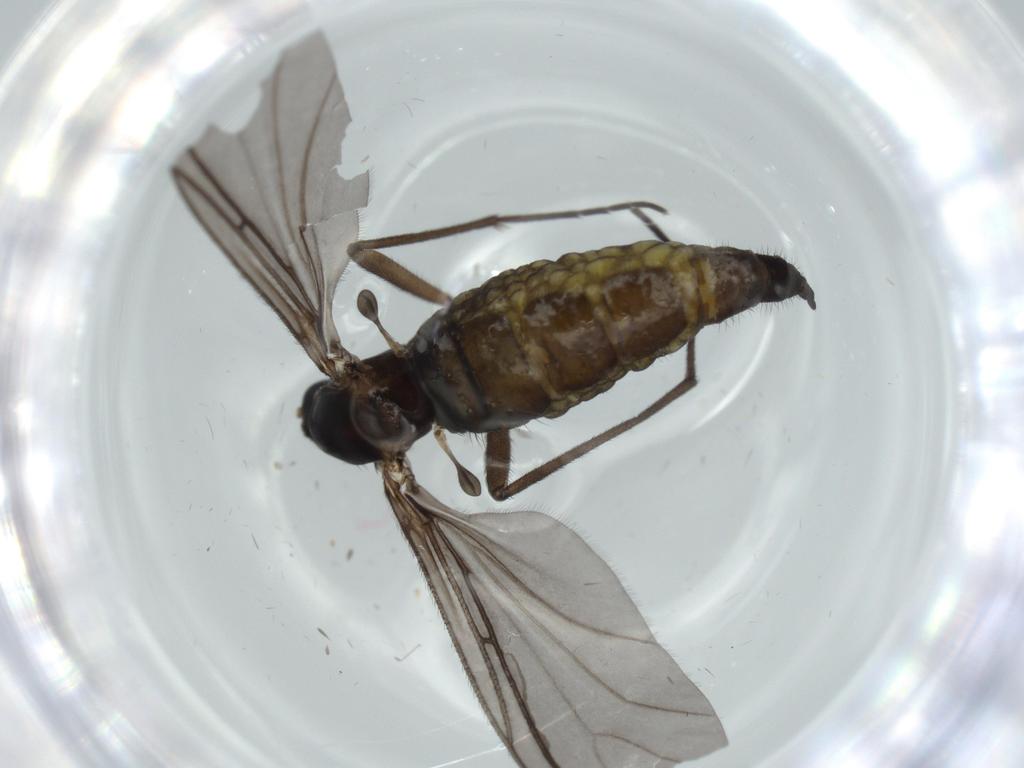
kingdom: Animalia
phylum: Arthropoda
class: Insecta
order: Diptera
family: Sciaridae
